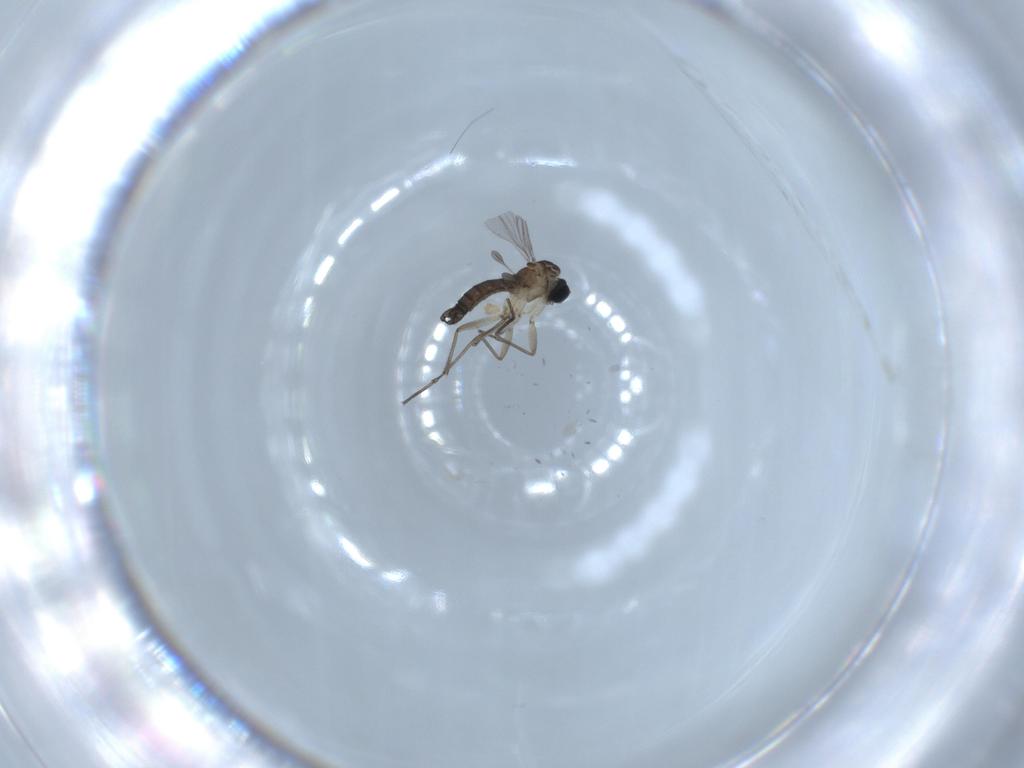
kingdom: Animalia
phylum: Arthropoda
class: Insecta
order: Diptera
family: Sciaridae
